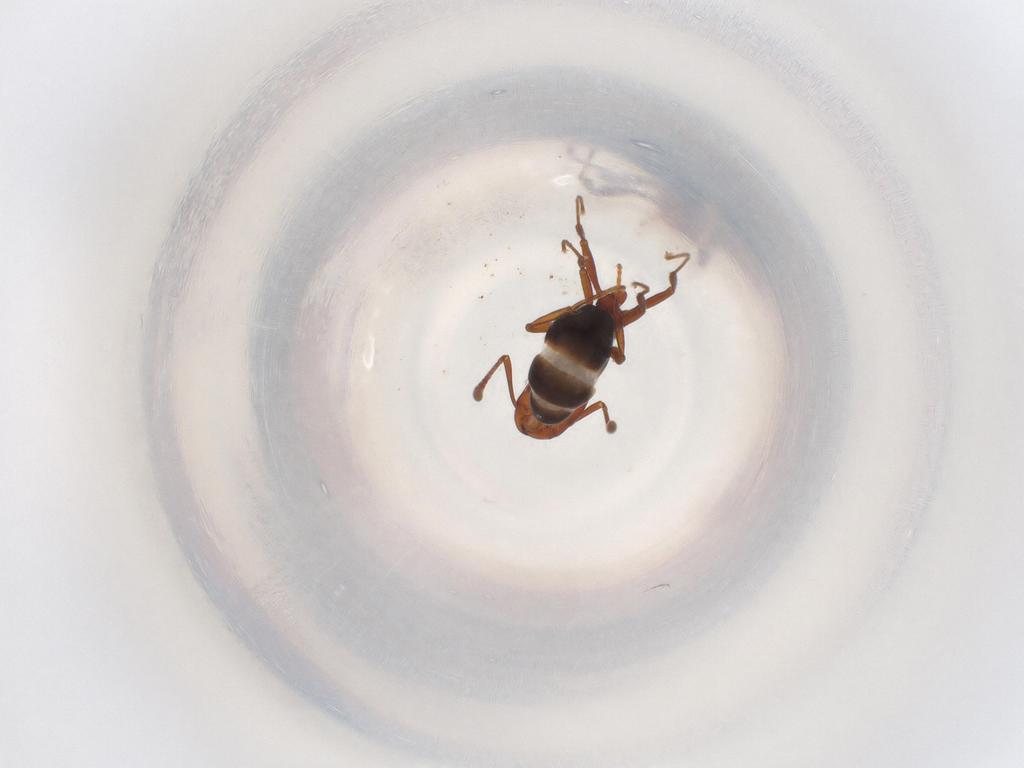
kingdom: Animalia
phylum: Arthropoda
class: Insecta
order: Hymenoptera
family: Formicidae
